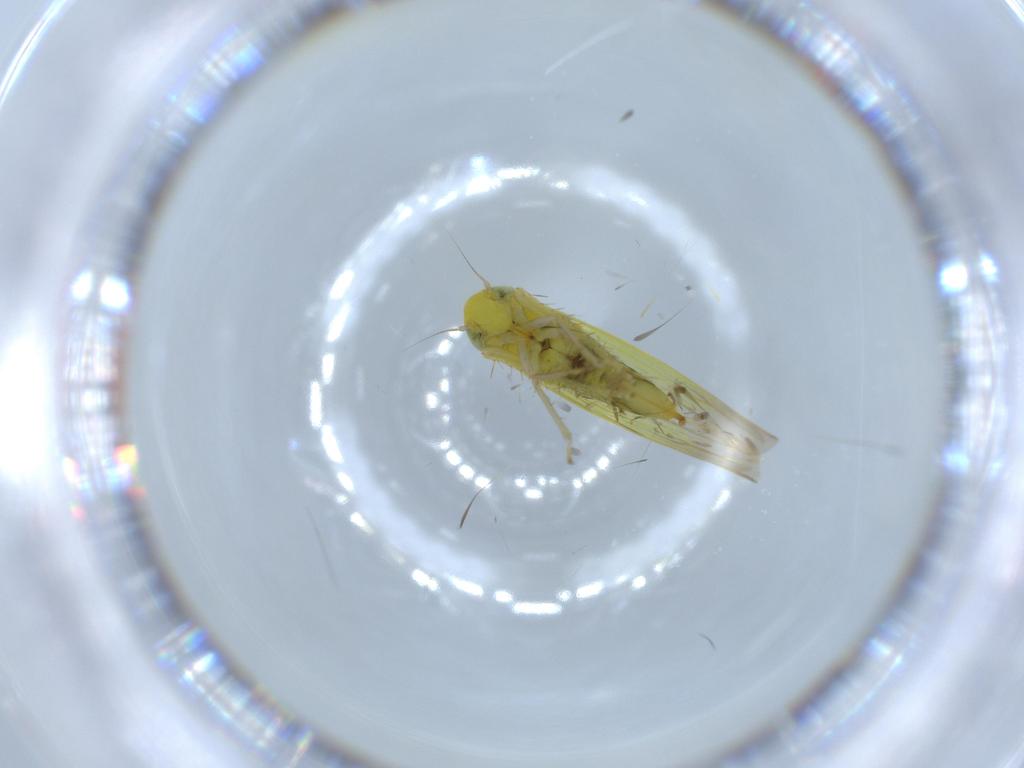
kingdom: Animalia
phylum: Arthropoda
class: Insecta
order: Hemiptera
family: Cicadellidae
